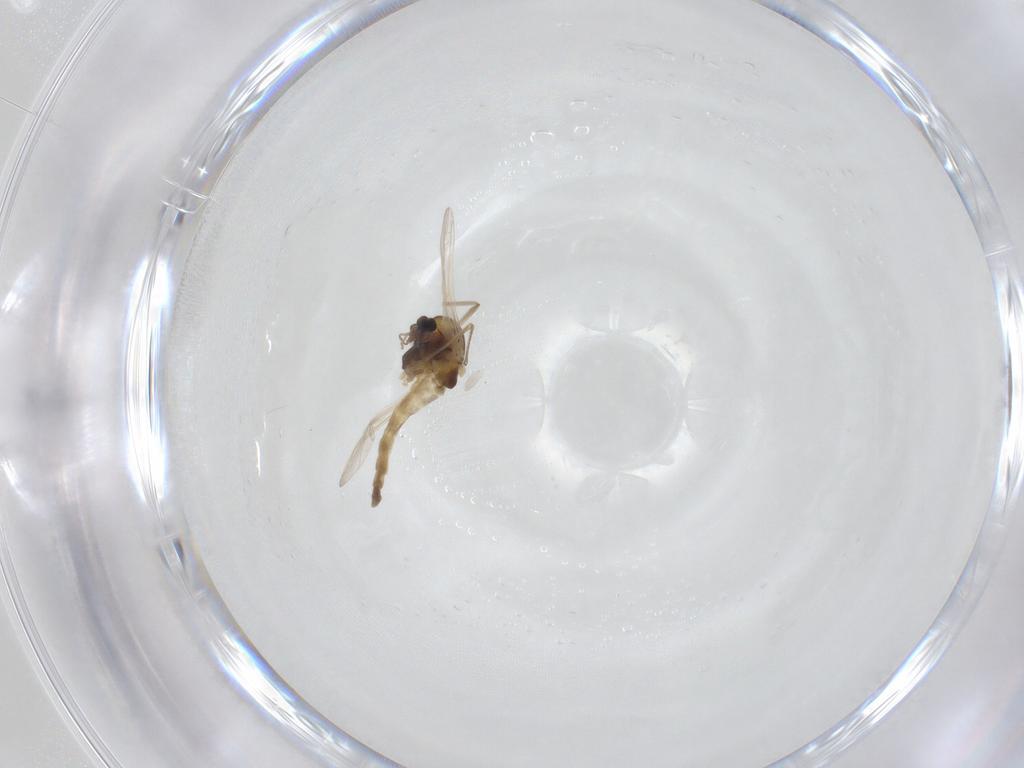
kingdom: Animalia
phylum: Arthropoda
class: Insecta
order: Diptera
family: Chironomidae
